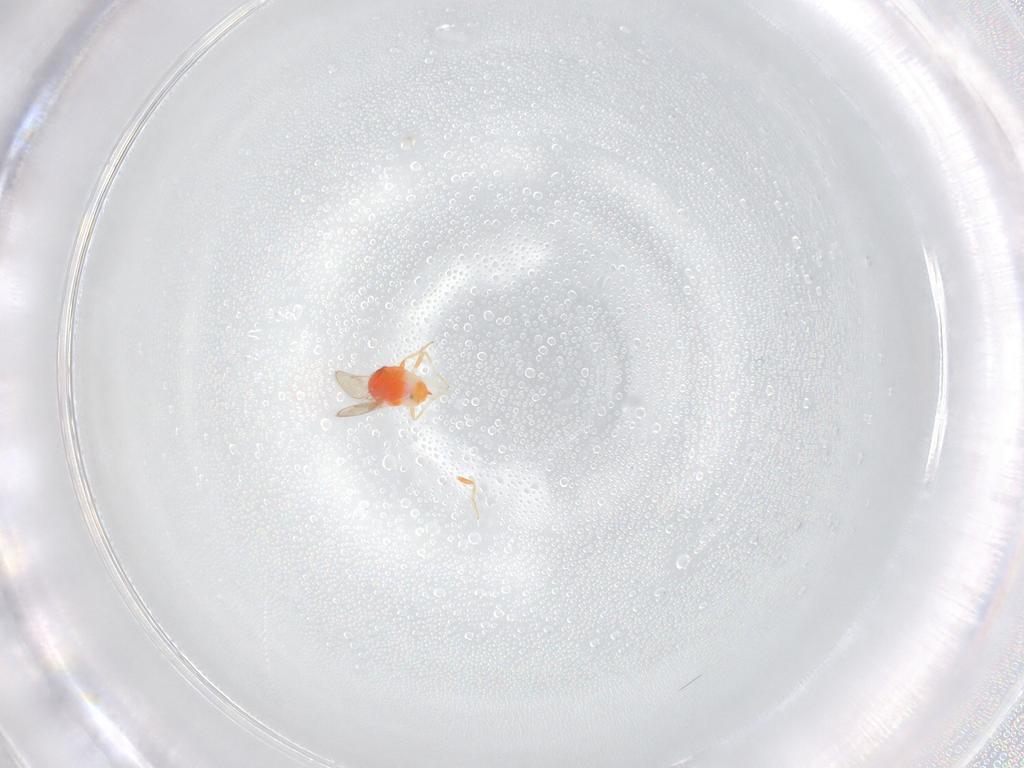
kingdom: Animalia
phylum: Arthropoda
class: Insecta
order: Hymenoptera
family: Aphelinidae
